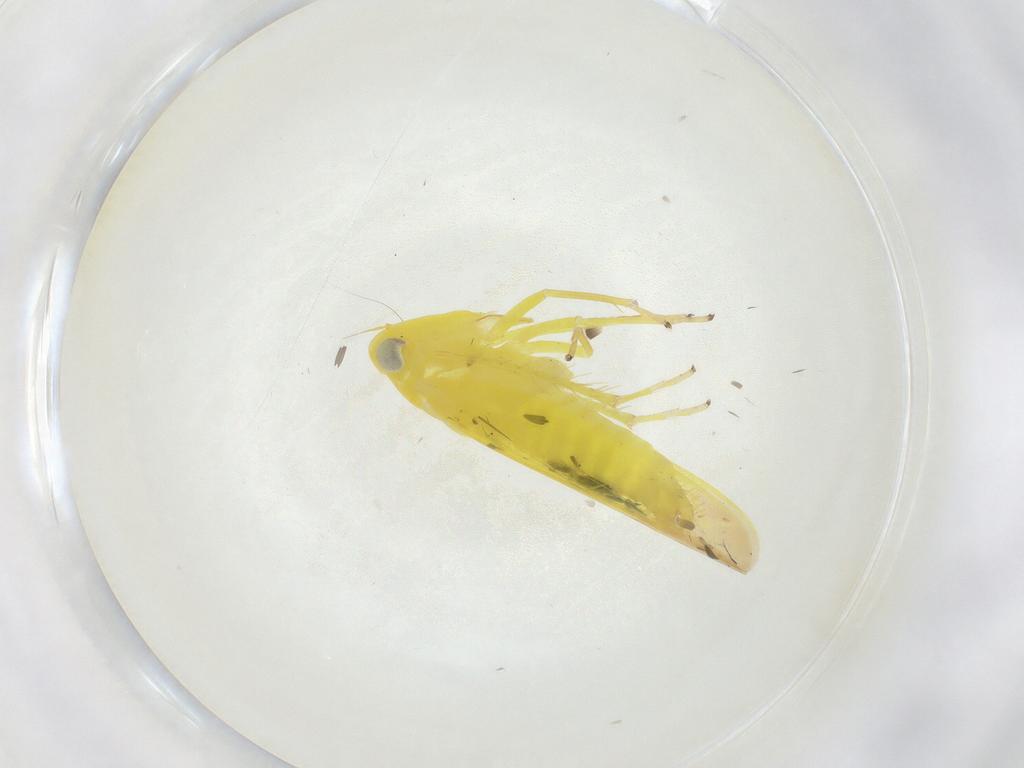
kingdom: Animalia
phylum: Arthropoda
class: Insecta
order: Hemiptera
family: Cicadellidae
